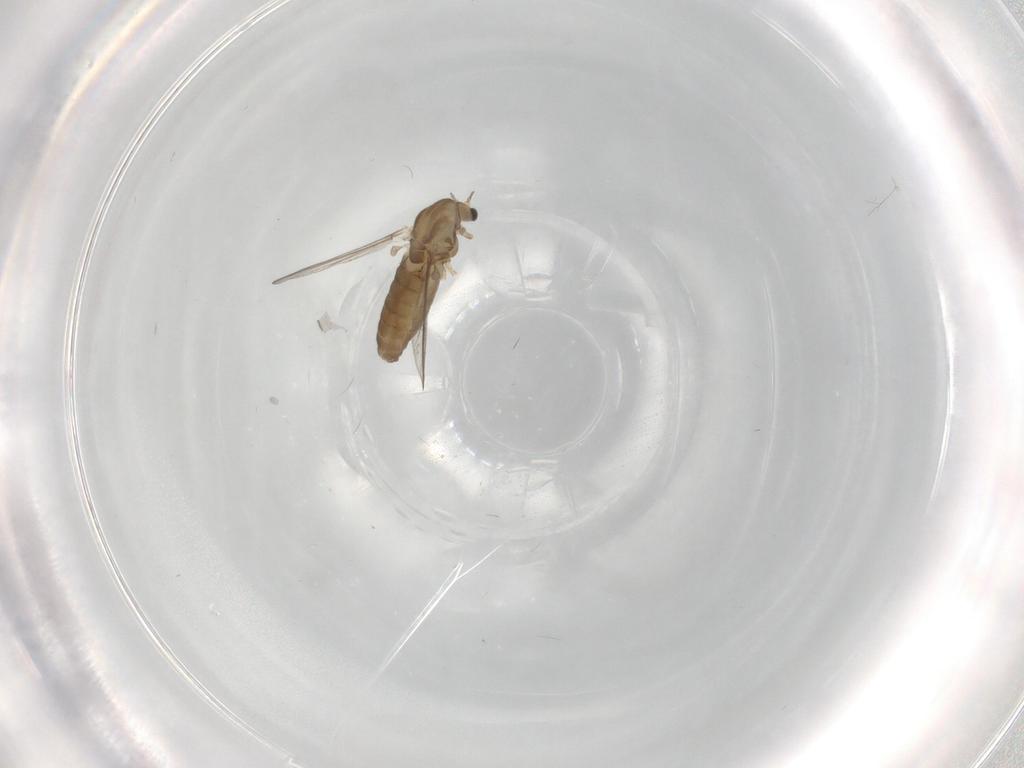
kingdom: Animalia
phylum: Arthropoda
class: Insecta
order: Diptera
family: Chironomidae
